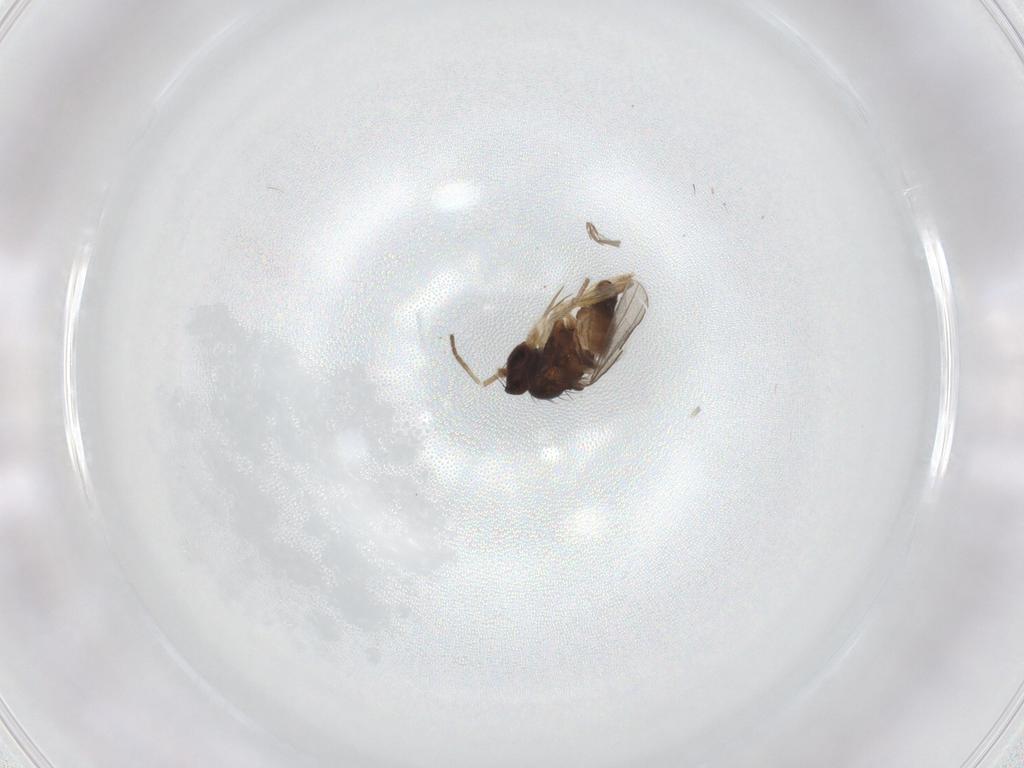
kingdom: Animalia
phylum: Arthropoda
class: Insecta
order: Diptera
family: Dolichopodidae
